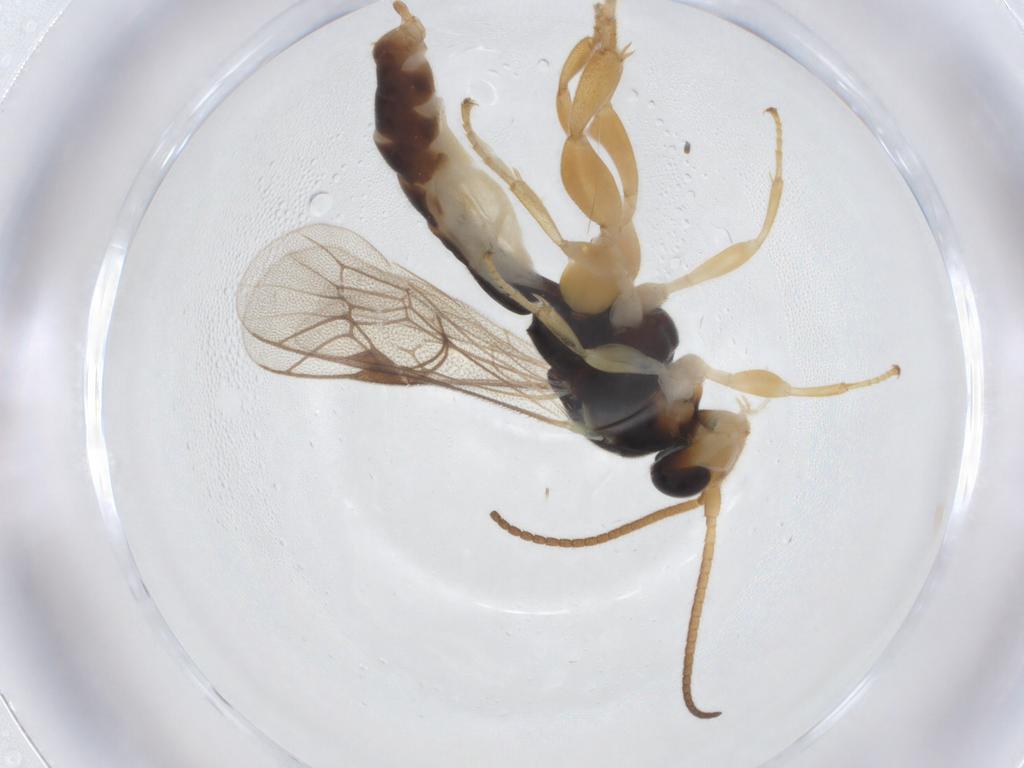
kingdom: Animalia
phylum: Arthropoda
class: Insecta
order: Hymenoptera
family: Ichneumonidae
